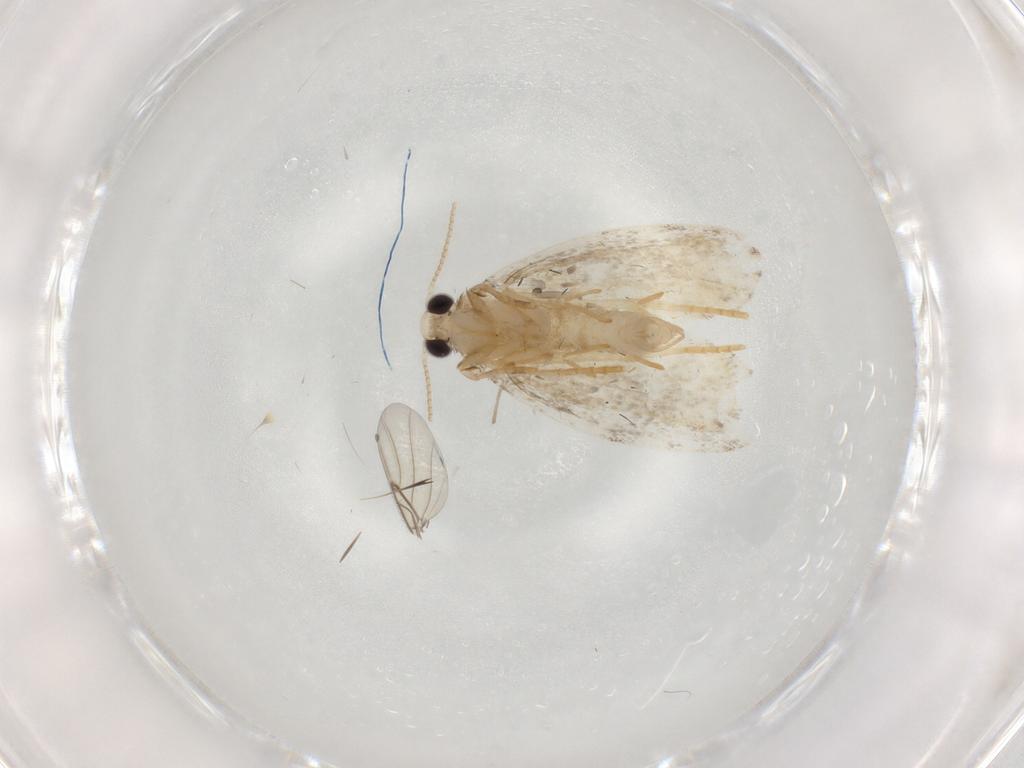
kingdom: Animalia
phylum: Arthropoda
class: Insecta
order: Lepidoptera
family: Psychidae
